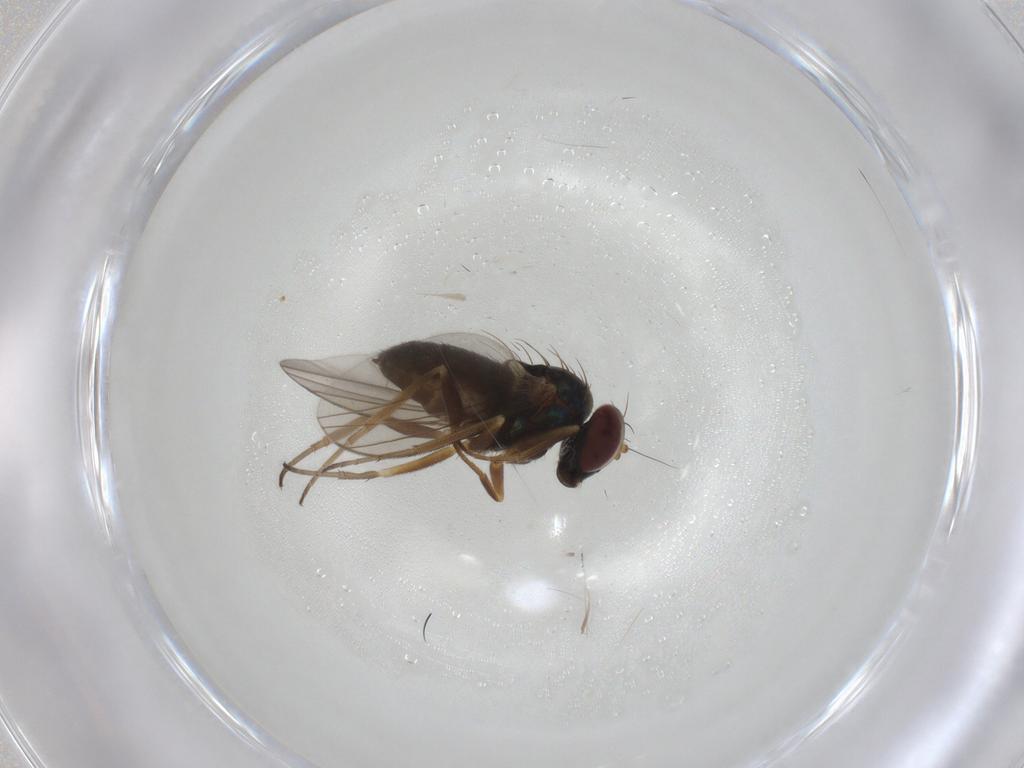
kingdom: Animalia
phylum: Arthropoda
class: Insecta
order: Diptera
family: Dolichopodidae
